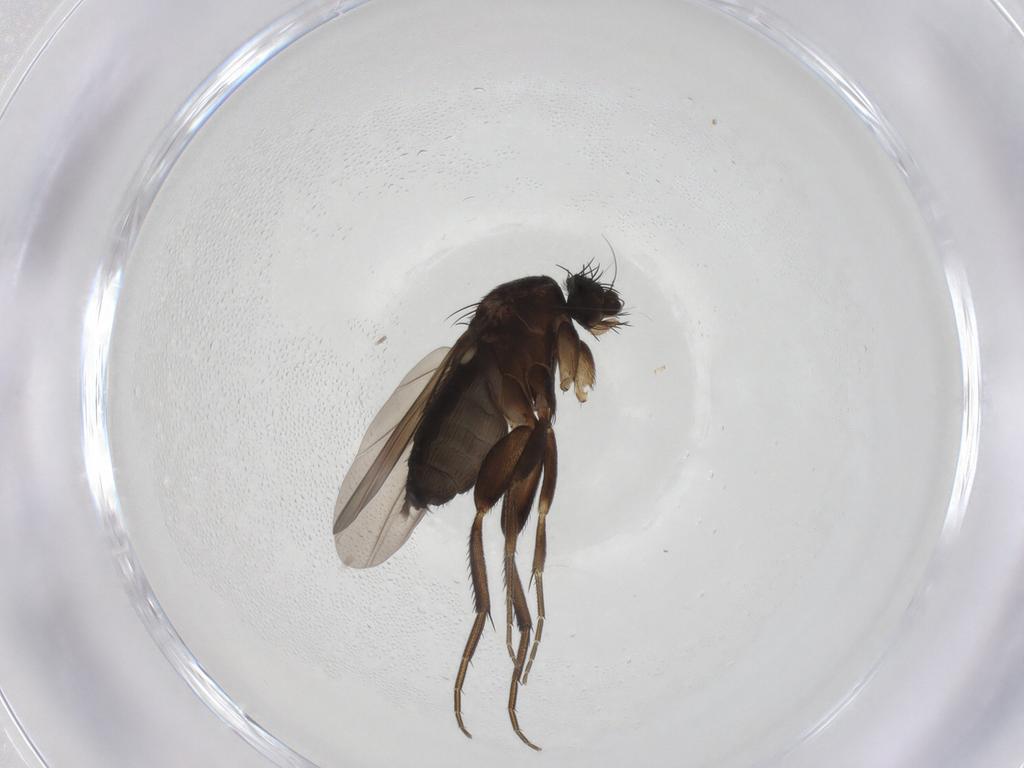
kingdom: Animalia
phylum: Arthropoda
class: Insecta
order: Diptera
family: Phoridae
